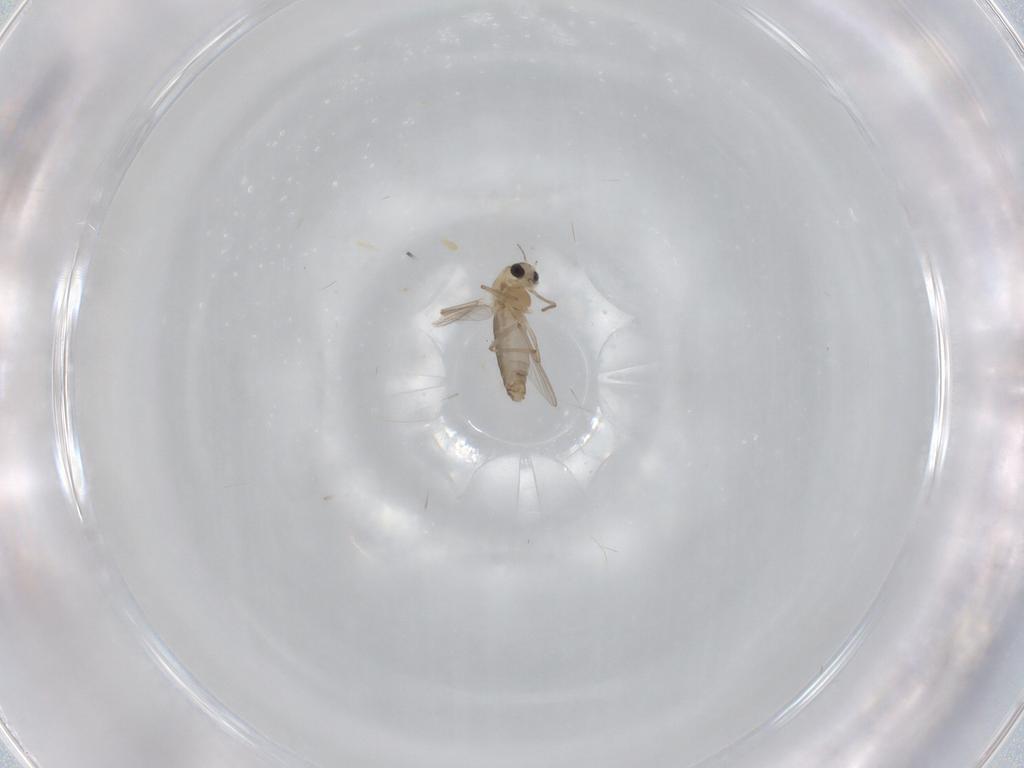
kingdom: Animalia
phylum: Arthropoda
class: Insecta
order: Diptera
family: Chironomidae
